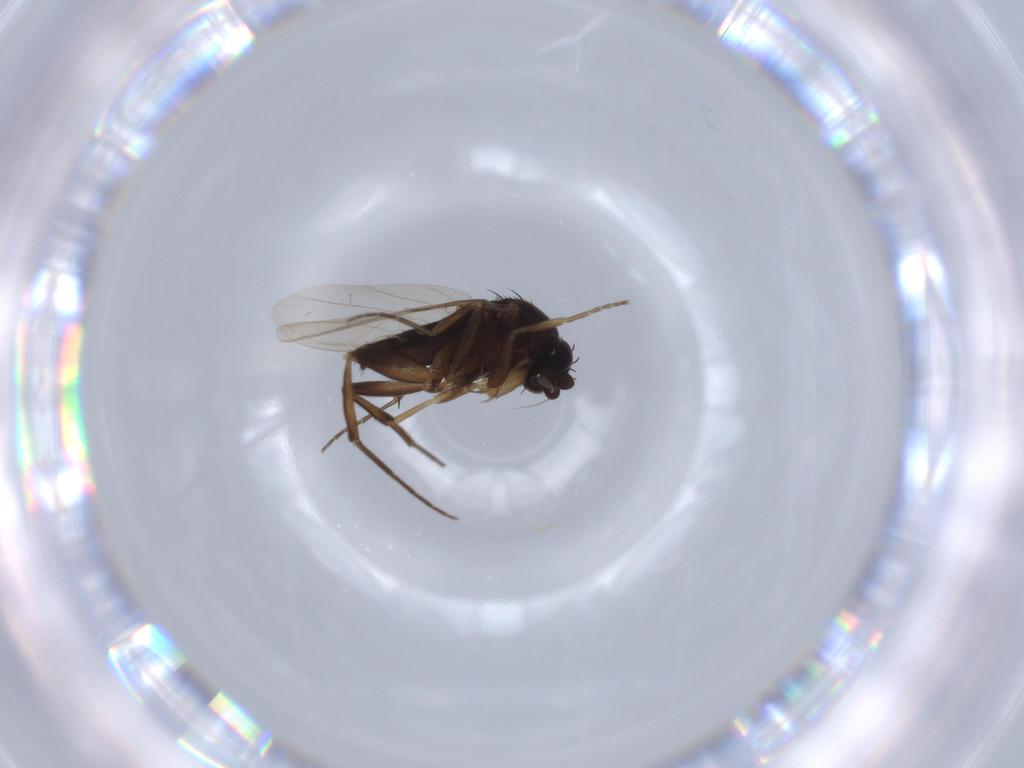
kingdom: Animalia
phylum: Arthropoda
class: Insecta
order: Diptera
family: Phoridae
